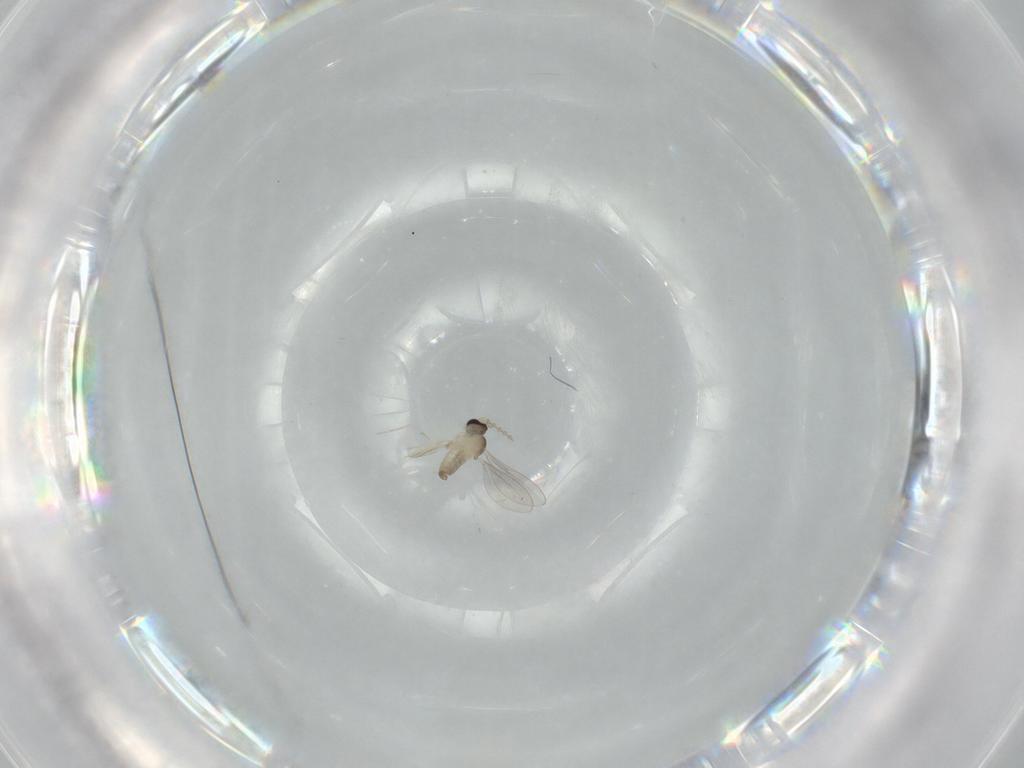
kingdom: Animalia
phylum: Arthropoda
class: Insecta
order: Diptera
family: Cecidomyiidae
